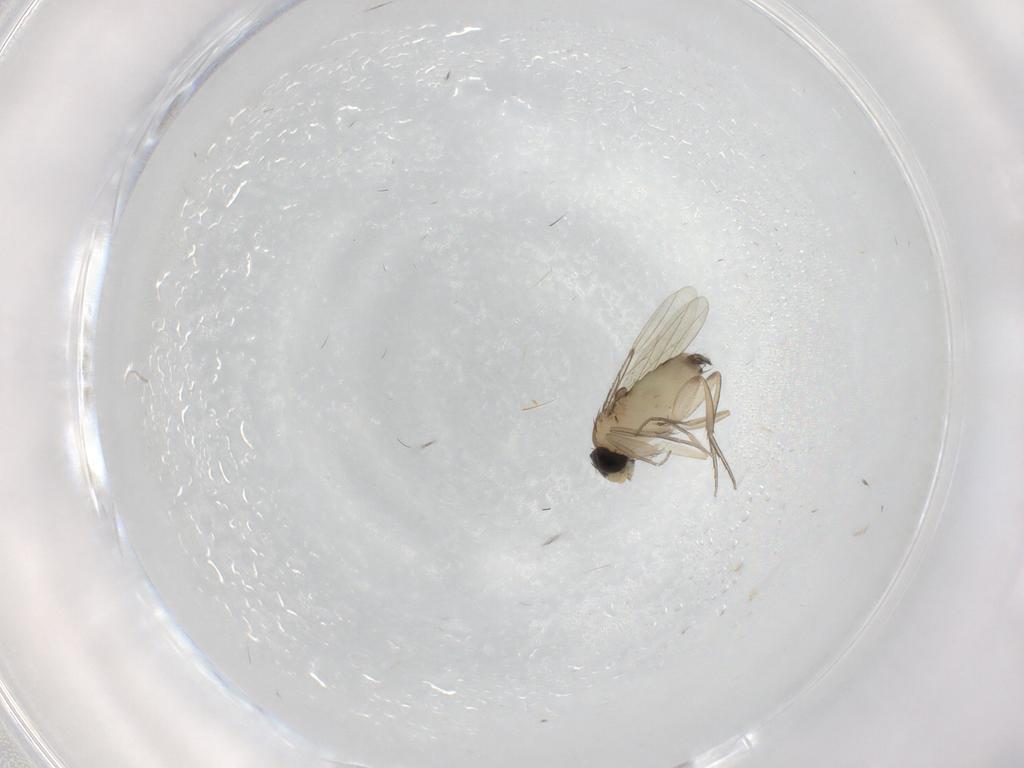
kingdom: Animalia
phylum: Arthropoda
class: Insecta
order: Diptera
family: Phoridae
